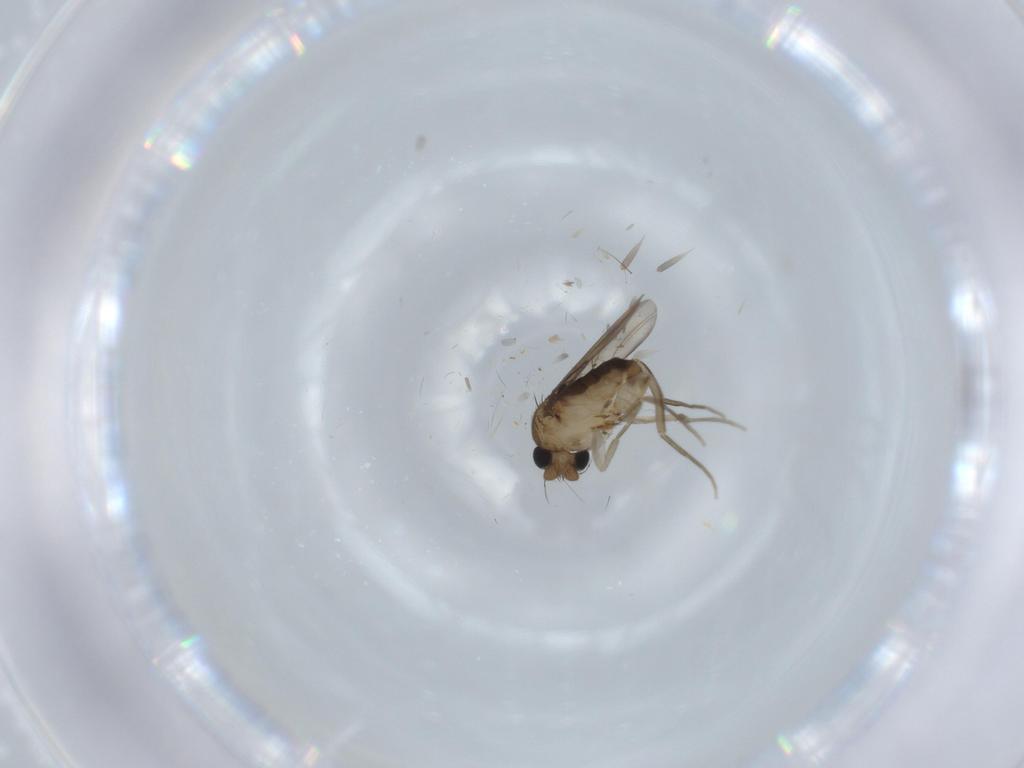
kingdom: Animalia
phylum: Arthropoda
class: Insecta
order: Diptera
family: Phoridae
